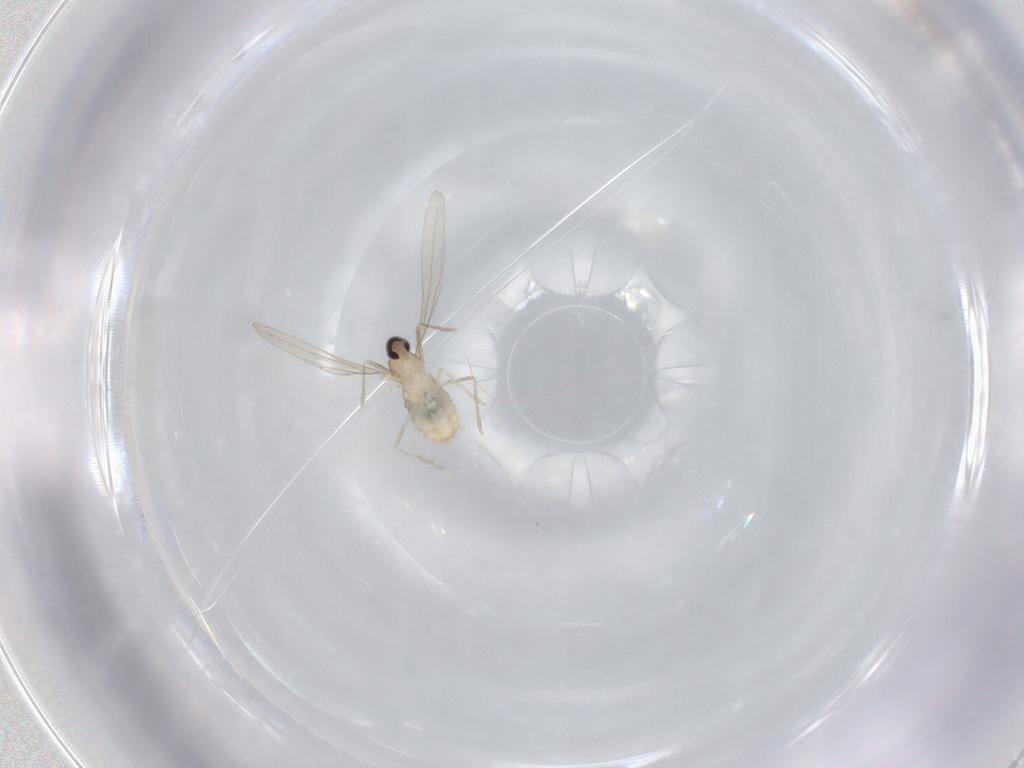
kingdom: Animalia
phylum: Arthropoda
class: Insecta
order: Diptera
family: Cecidomyiidae
